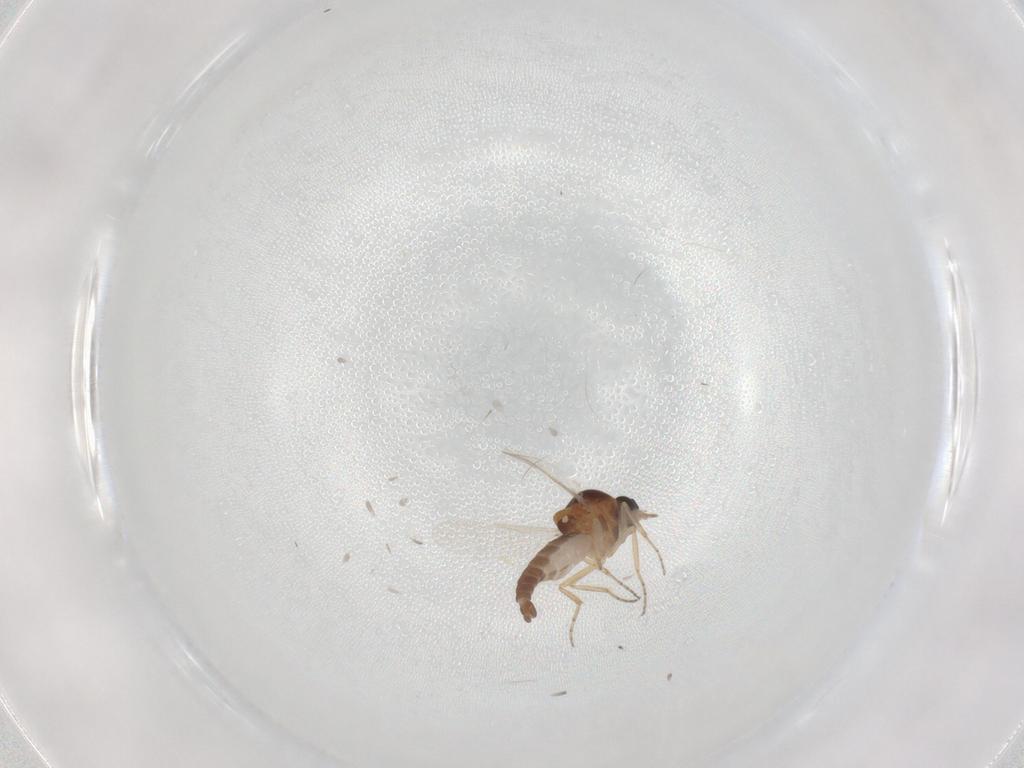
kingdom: Animalia
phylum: Arthropoda
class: Insecta
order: Diptera
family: Ceratopogonidae
